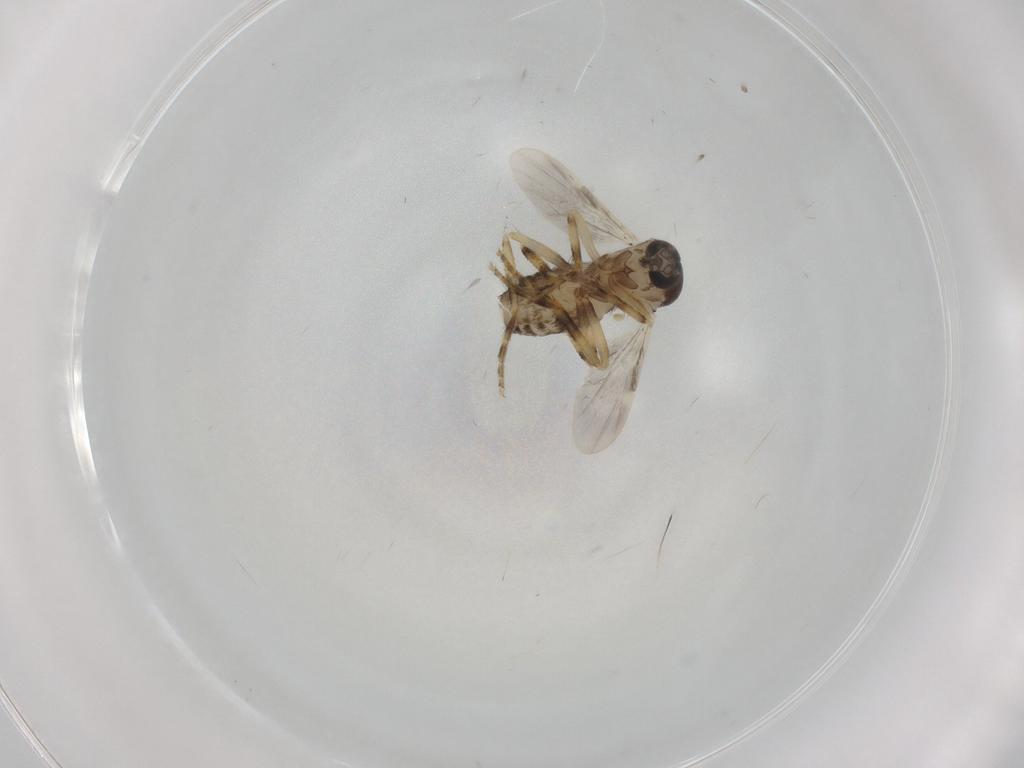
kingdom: Animalia
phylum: Arthropoda
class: Insecta
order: Diptera
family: Ceratopogonidae
